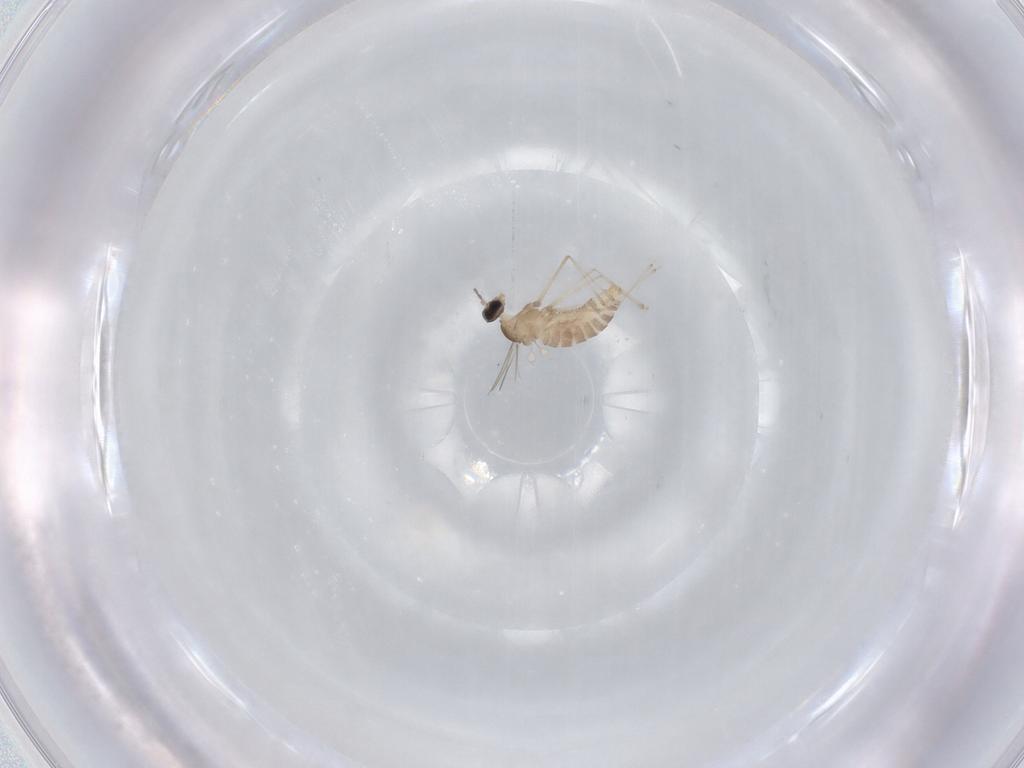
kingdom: Animalia
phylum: Arthropoda
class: Insecta
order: Diptera
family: Cecidomyiidae
